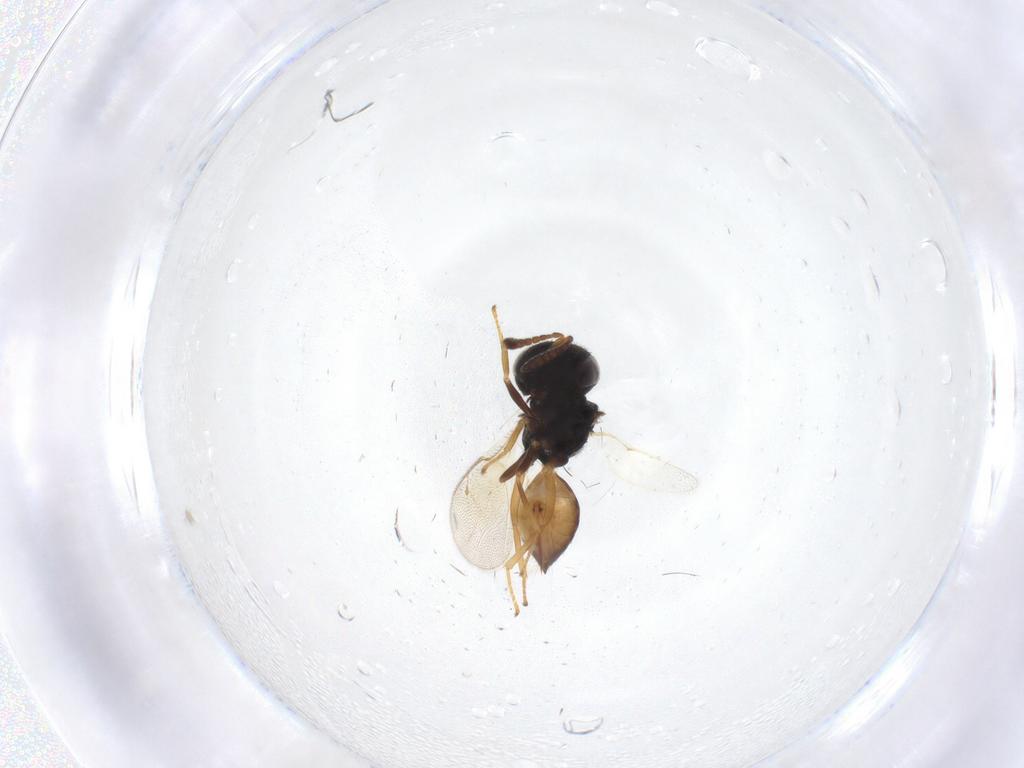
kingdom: Animalia
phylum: Arthropoda
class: Insecta
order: Hymenoptera
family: Pteromalidae
